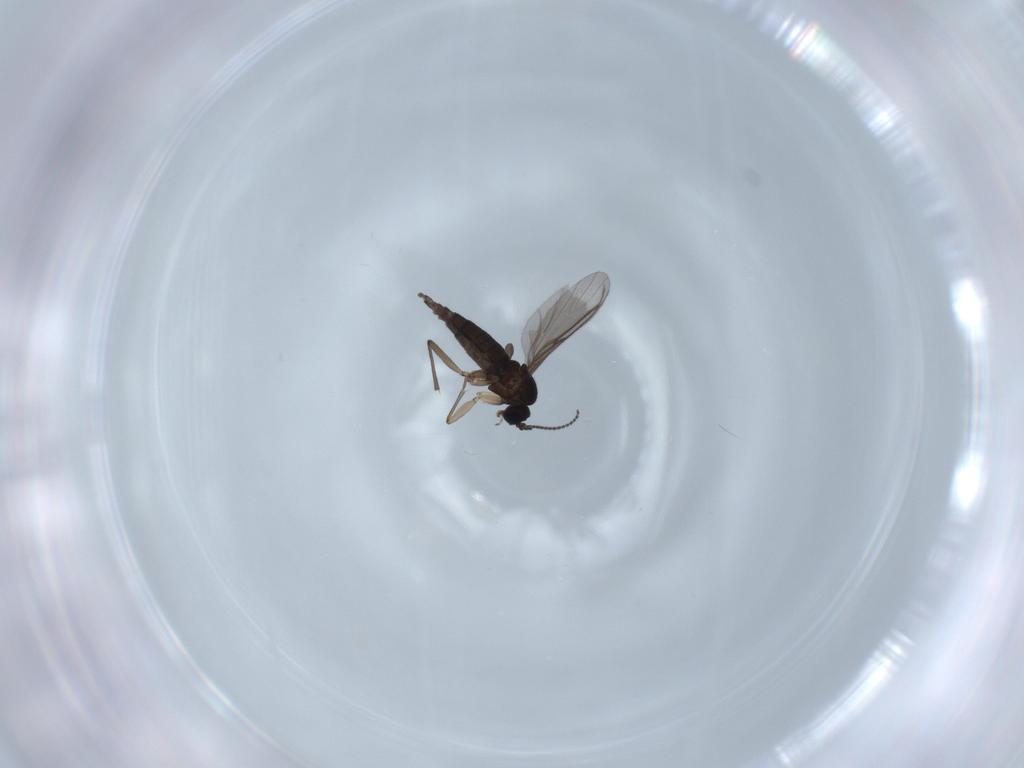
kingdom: Animalia
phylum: Arthropoda
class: Insecta
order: Diptera
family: Sciaridae
